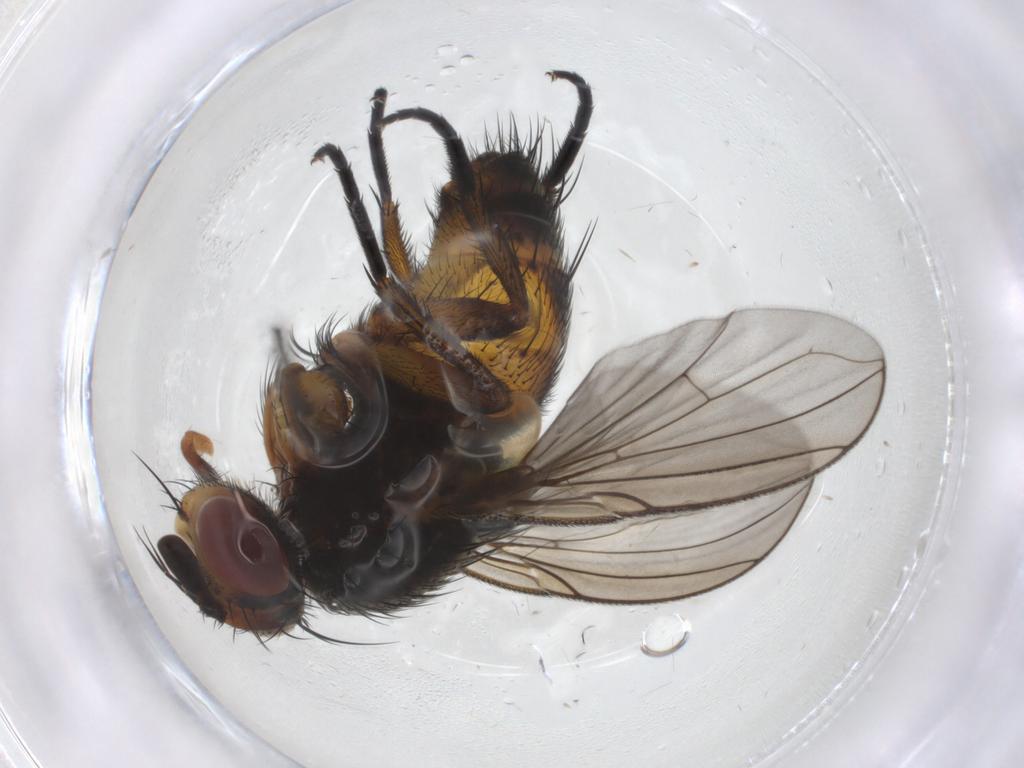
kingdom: Animalia
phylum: Arthropoda
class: Insecta
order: Diptera
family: Tachinidae
